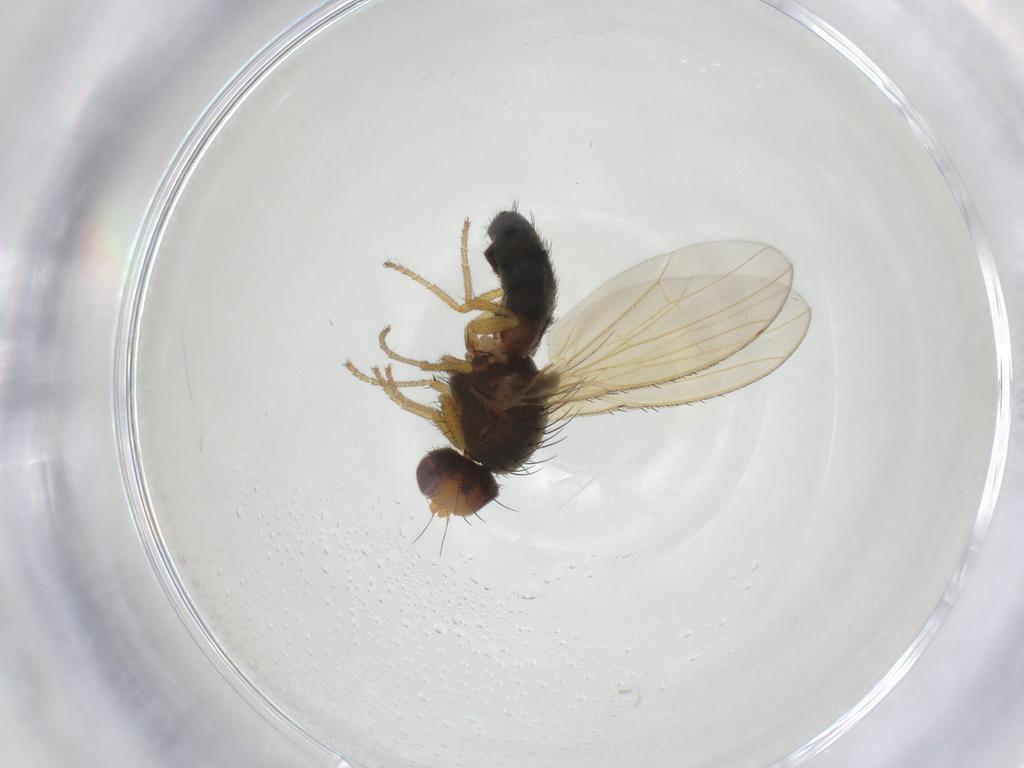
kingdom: Animalia
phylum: Arthropoda
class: Insecta
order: Diptera
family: Heleomyzidae
